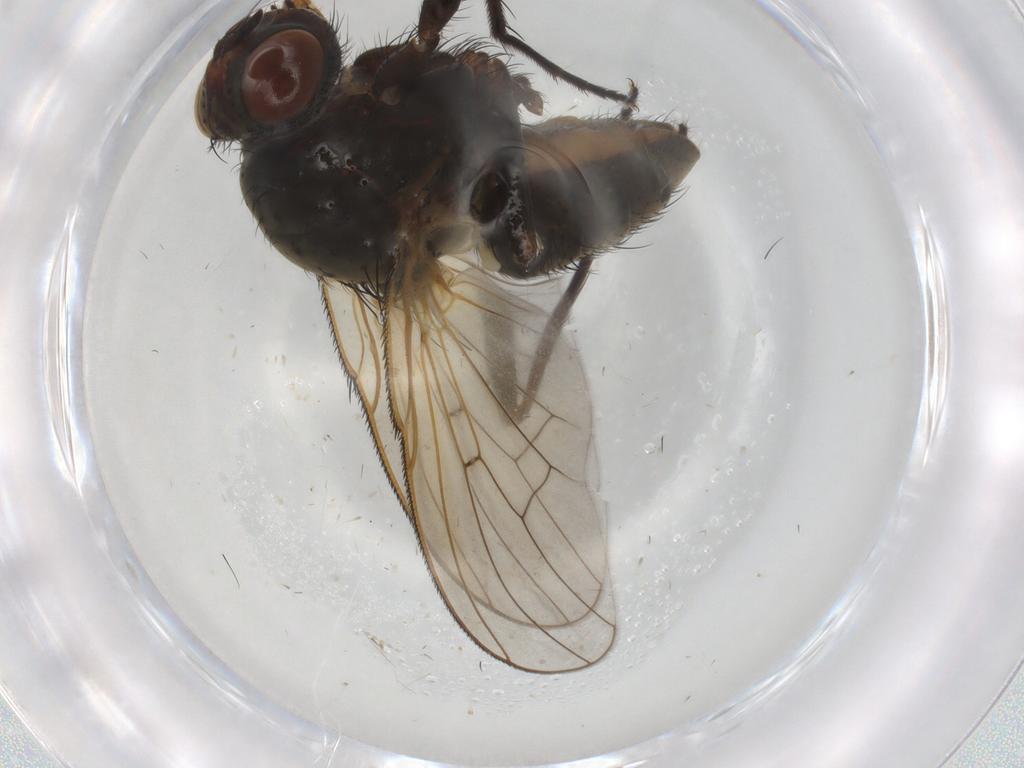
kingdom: Animalia
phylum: Arthropoda
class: Insecta
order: Diptera
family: Anthomyiidae
